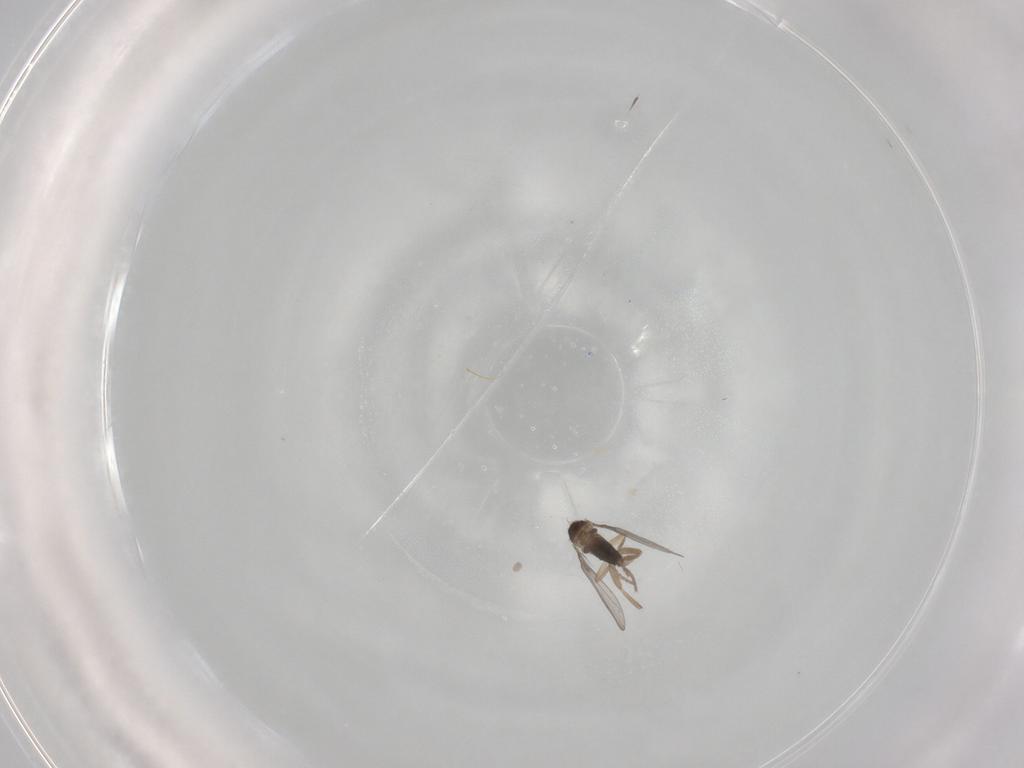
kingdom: Animalia
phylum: Arthropoda
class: Insecta
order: Diptera
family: Phoridae
